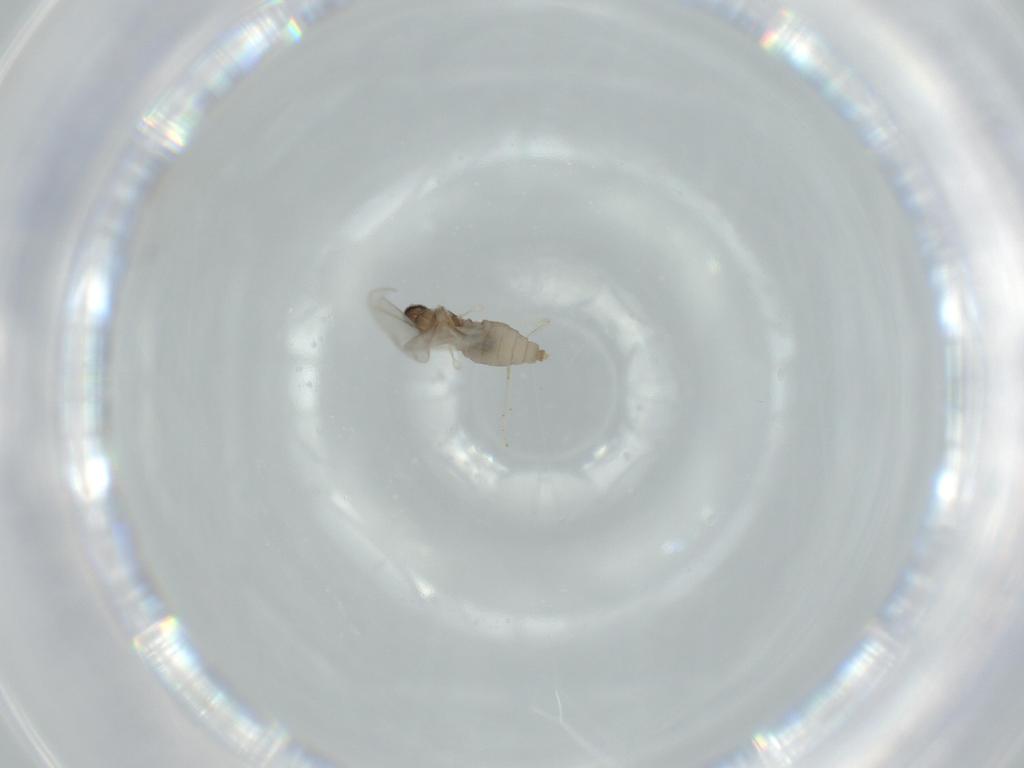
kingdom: Animalia
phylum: Arthropoda
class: Insecta
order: Diptera
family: Cecidomyiidae
